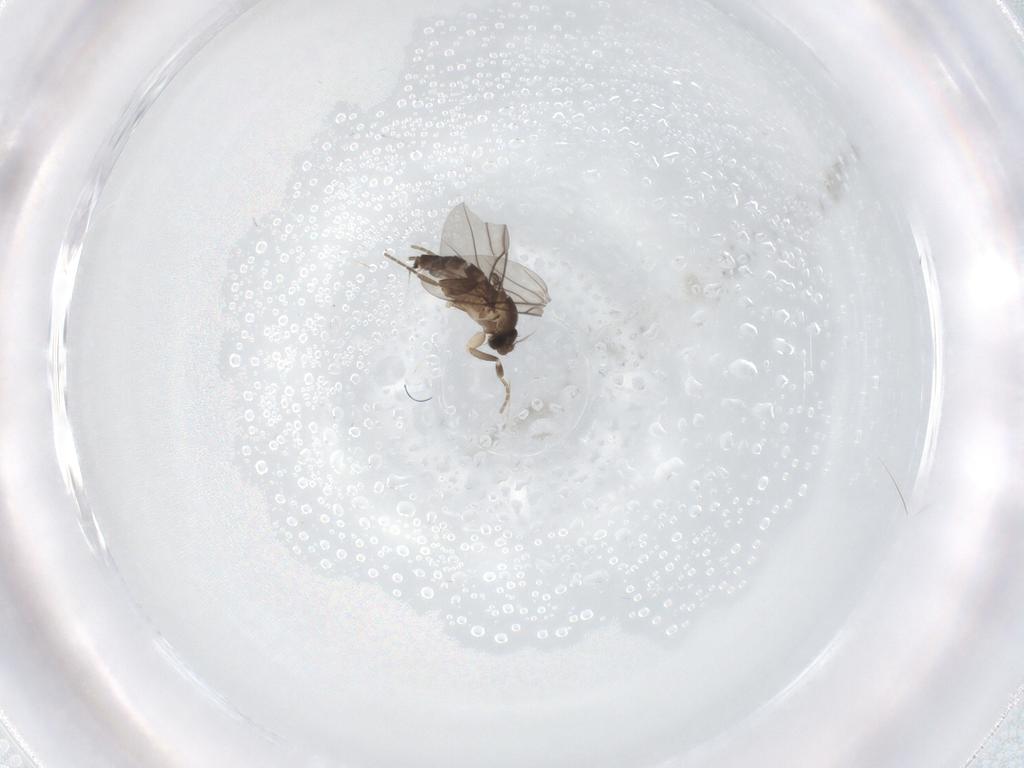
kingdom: Animalia
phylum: Arthropoda
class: Insecta
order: Diptera
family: Phoridae
